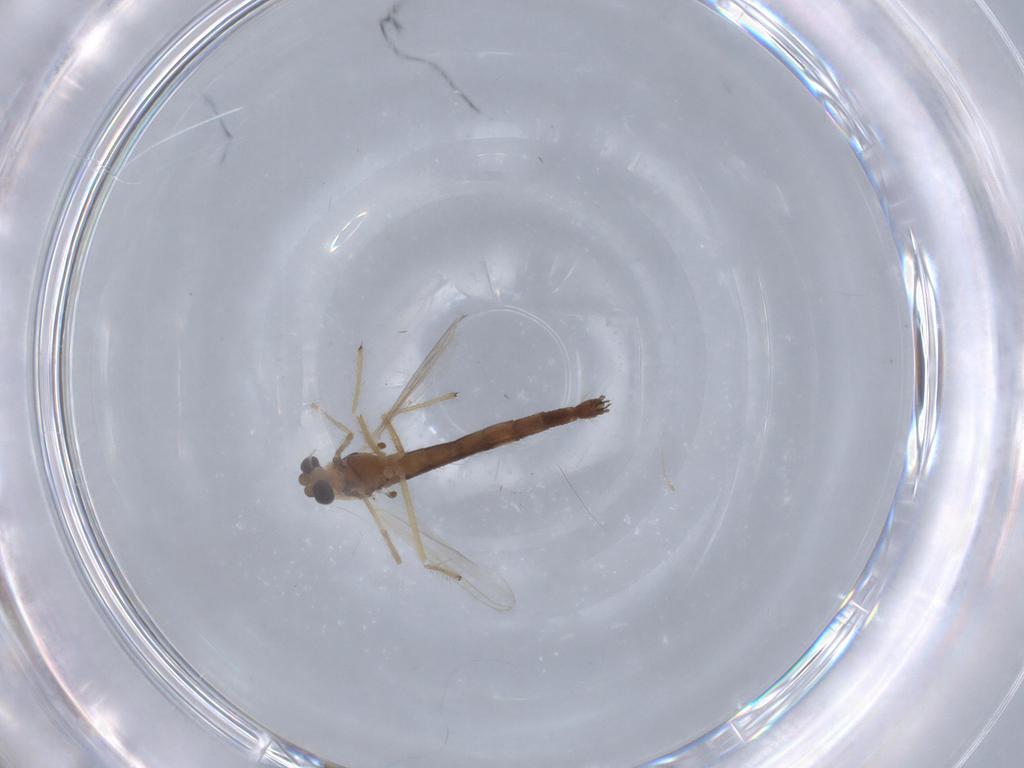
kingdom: Animalia
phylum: Arthropoda
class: Insecta
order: Diptera
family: Cecidomyiidae
